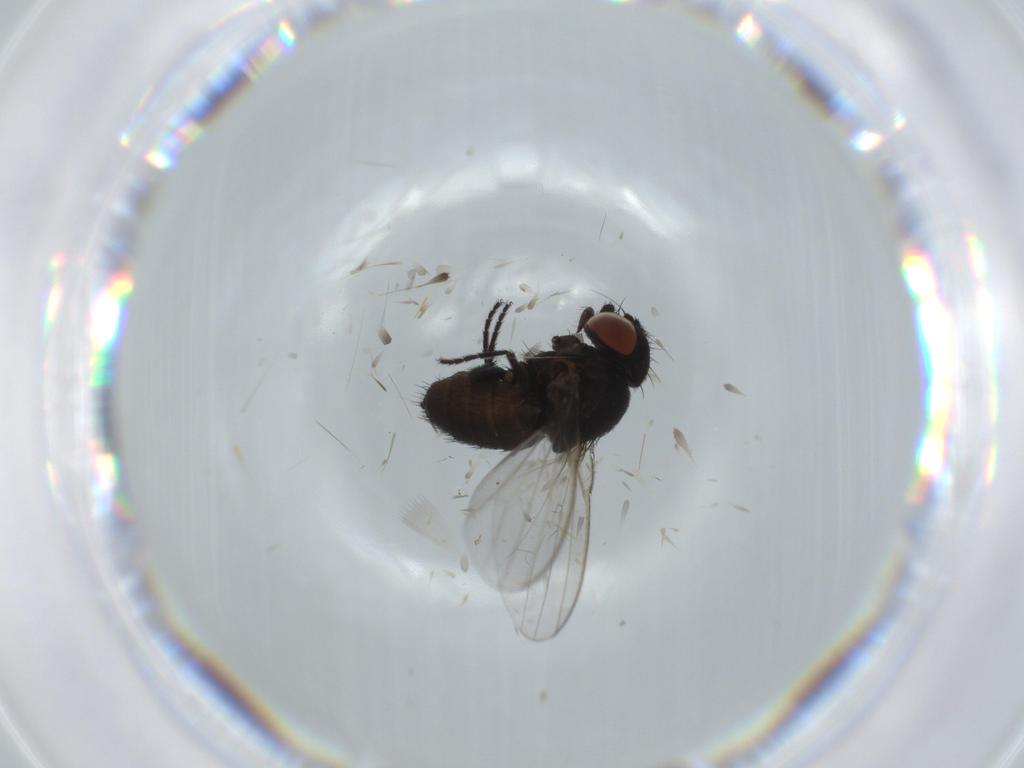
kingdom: Animalia
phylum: Arthropoda
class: Insecta
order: Diptera
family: Milichiidae
